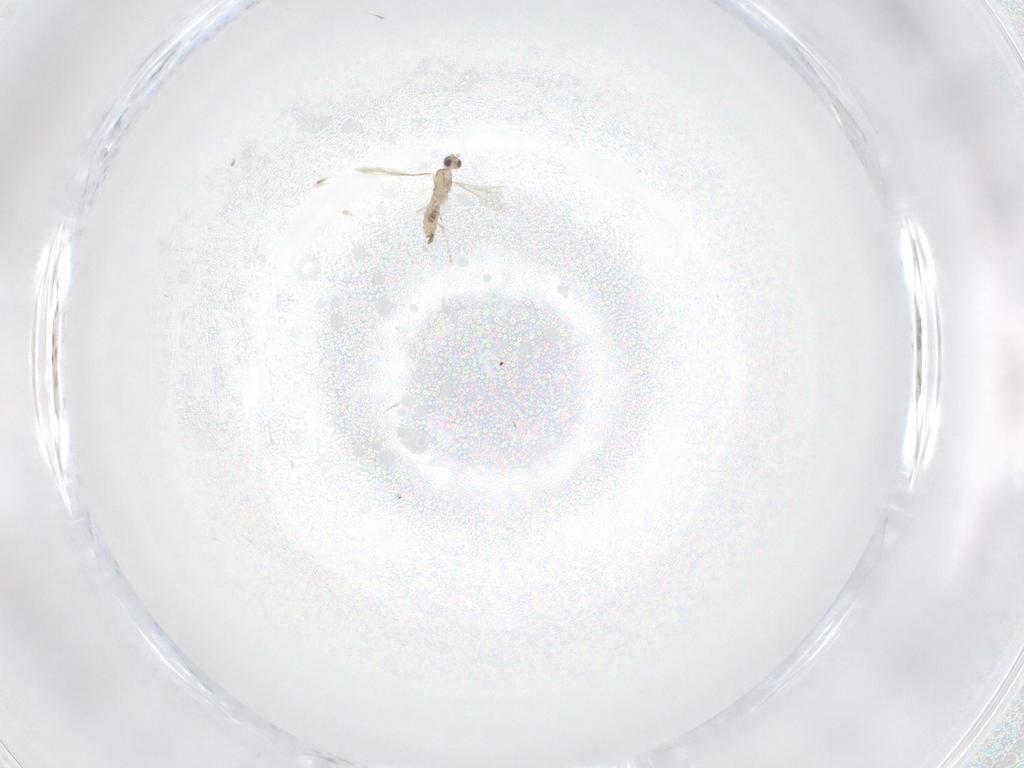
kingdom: Animalia
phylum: Arthropoda
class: Insecta
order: Diptera
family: Cecidomyiidae
